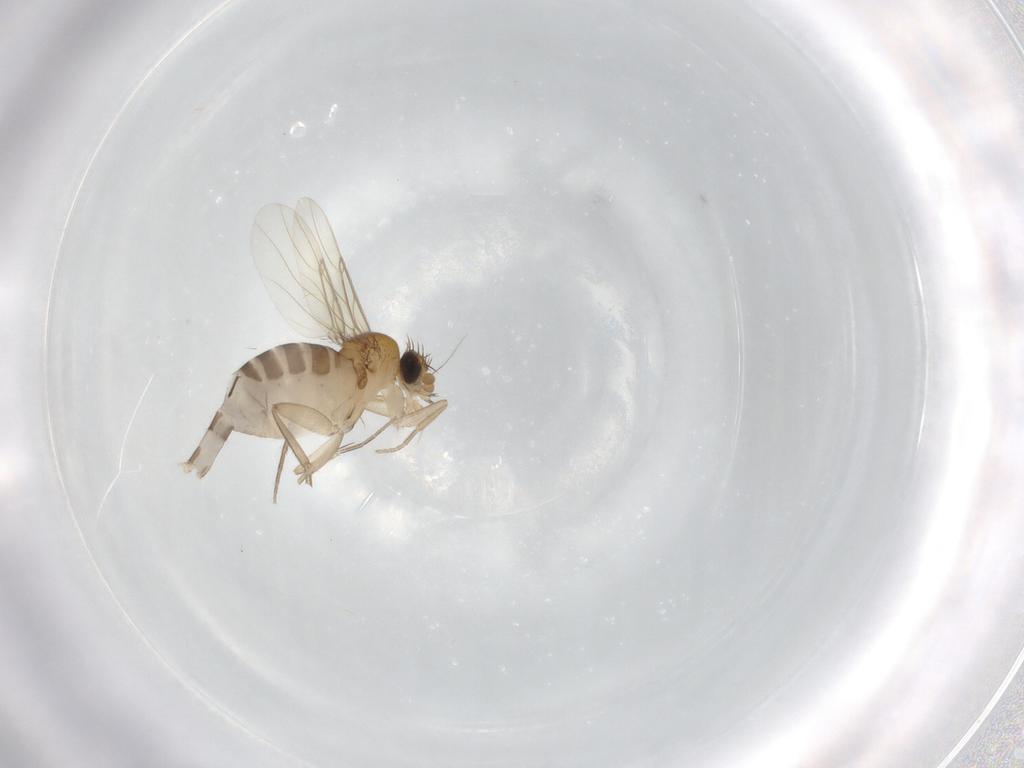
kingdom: Animalia
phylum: Arthropoda
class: Insecta
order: Diptera
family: Phoridae
